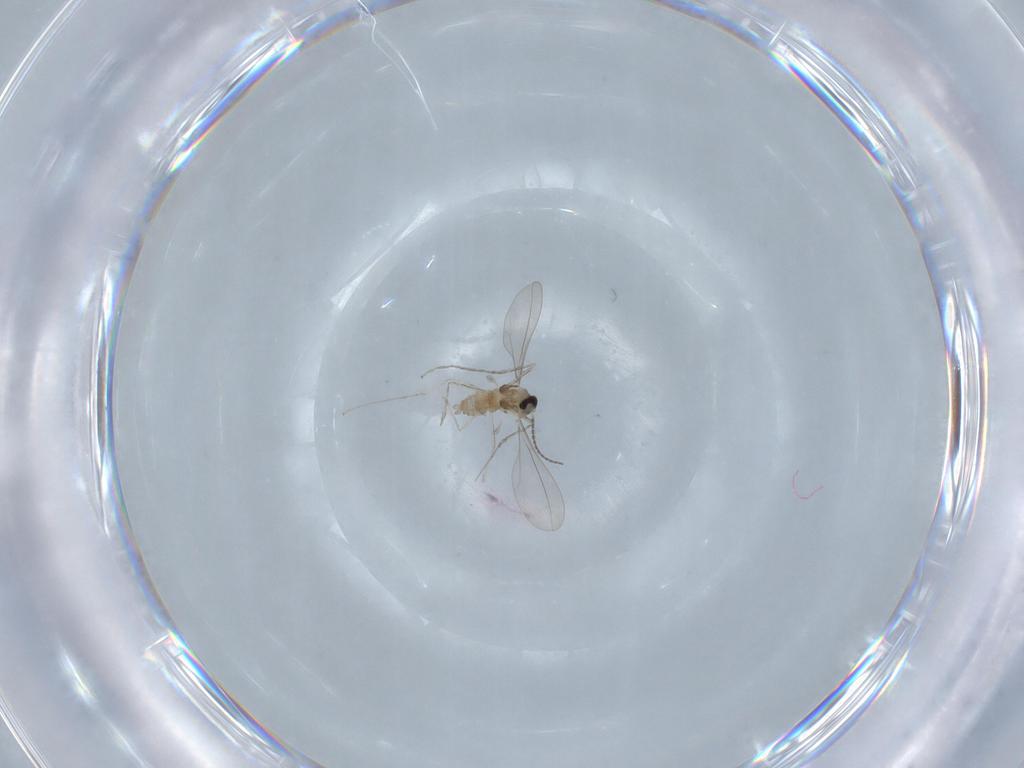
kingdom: Animalia
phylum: Arthropoda
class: Insecta
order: Diptera
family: Cecidomyiidae
